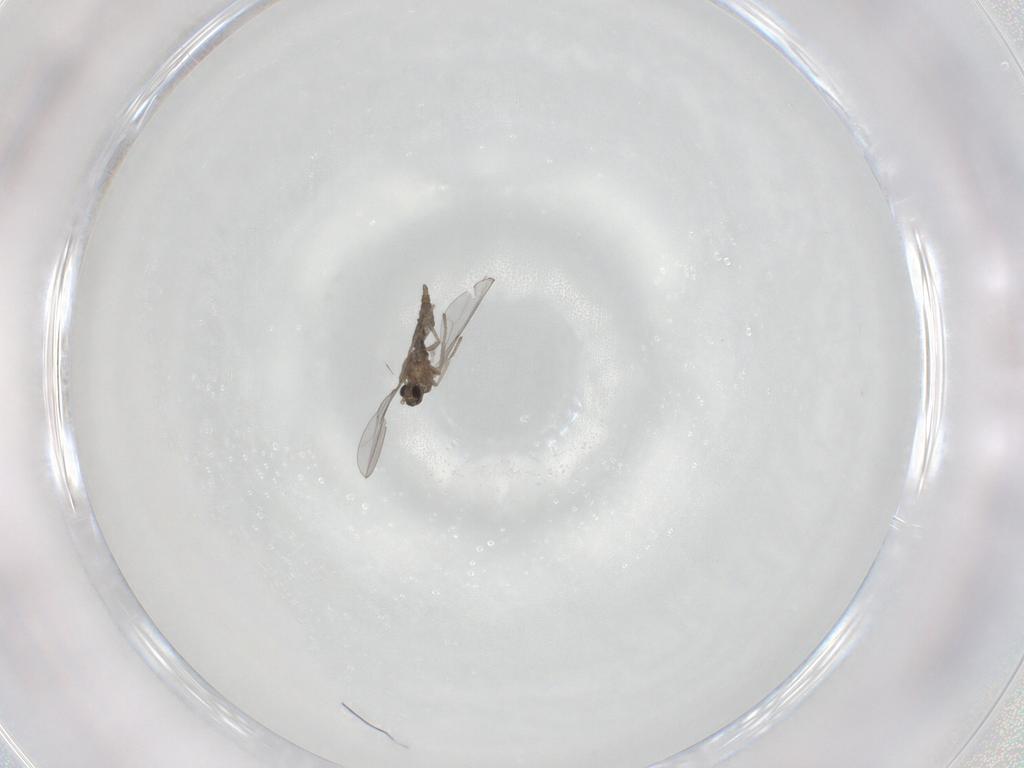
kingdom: Animalia
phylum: Arthropoda
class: Insecta
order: Diptera
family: Cecidomyiidae
